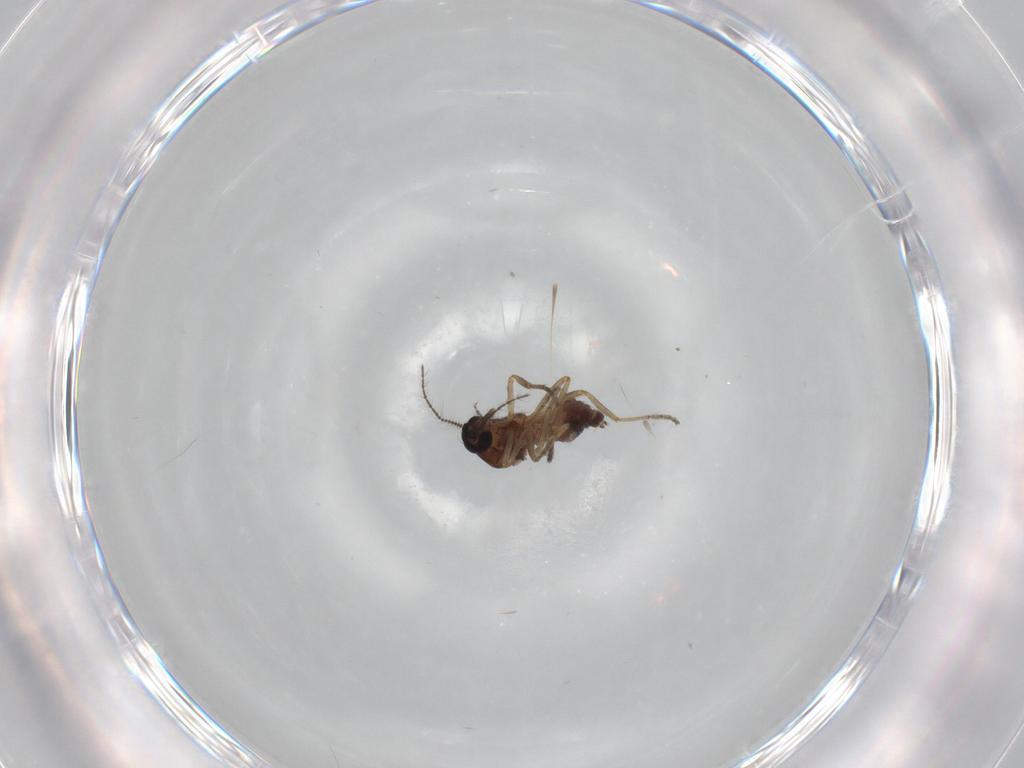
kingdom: Animalia
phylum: Arthropoda
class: Insecta
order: Diptera
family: Ceratopogonidae
